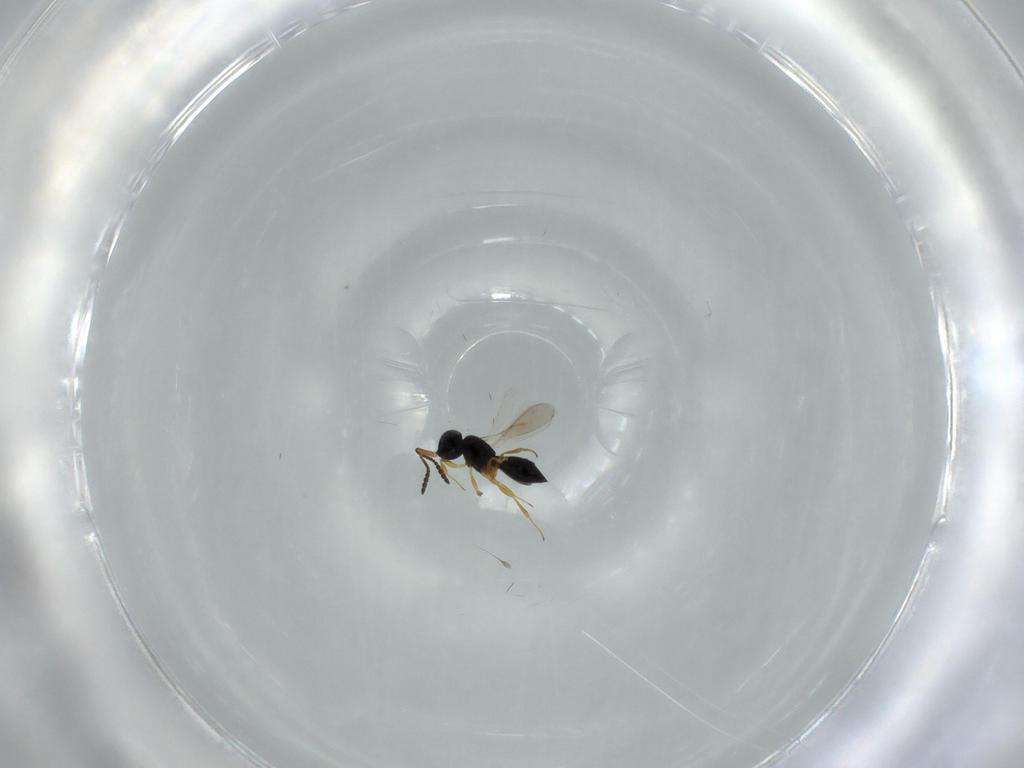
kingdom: Animalia
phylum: Arthropoda
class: Insecta
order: Hymenoptera
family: Scelionidae
